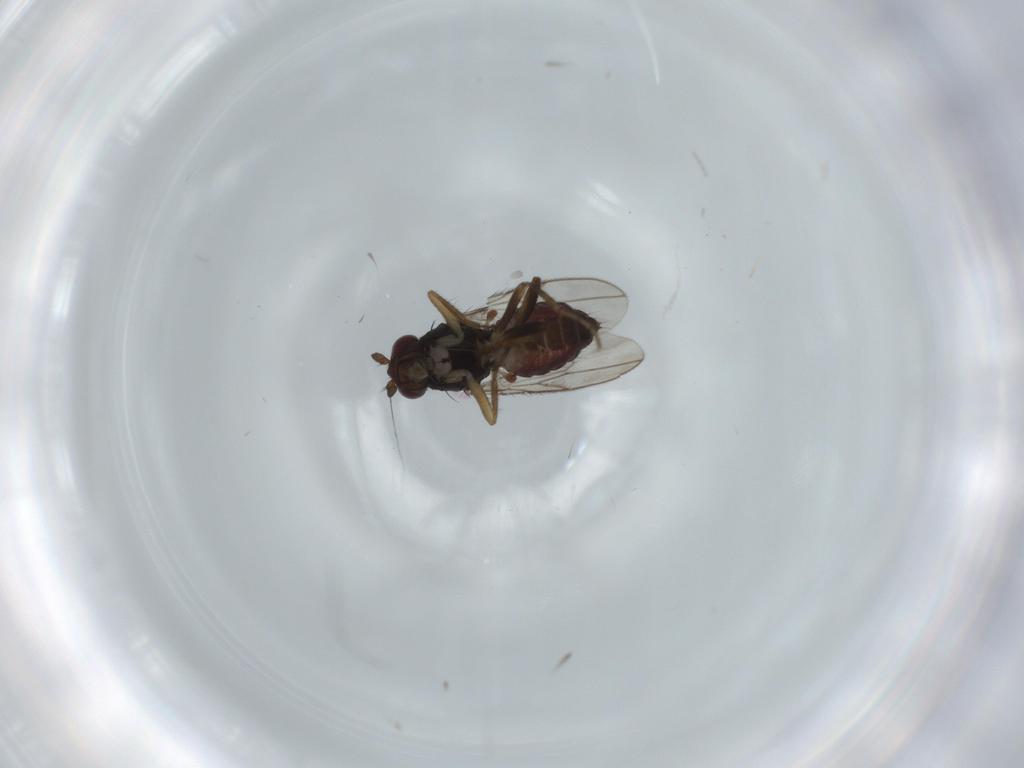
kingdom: Animalia
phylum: Arthropoda
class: Insecta
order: Diptera
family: Sphaeroceridae
